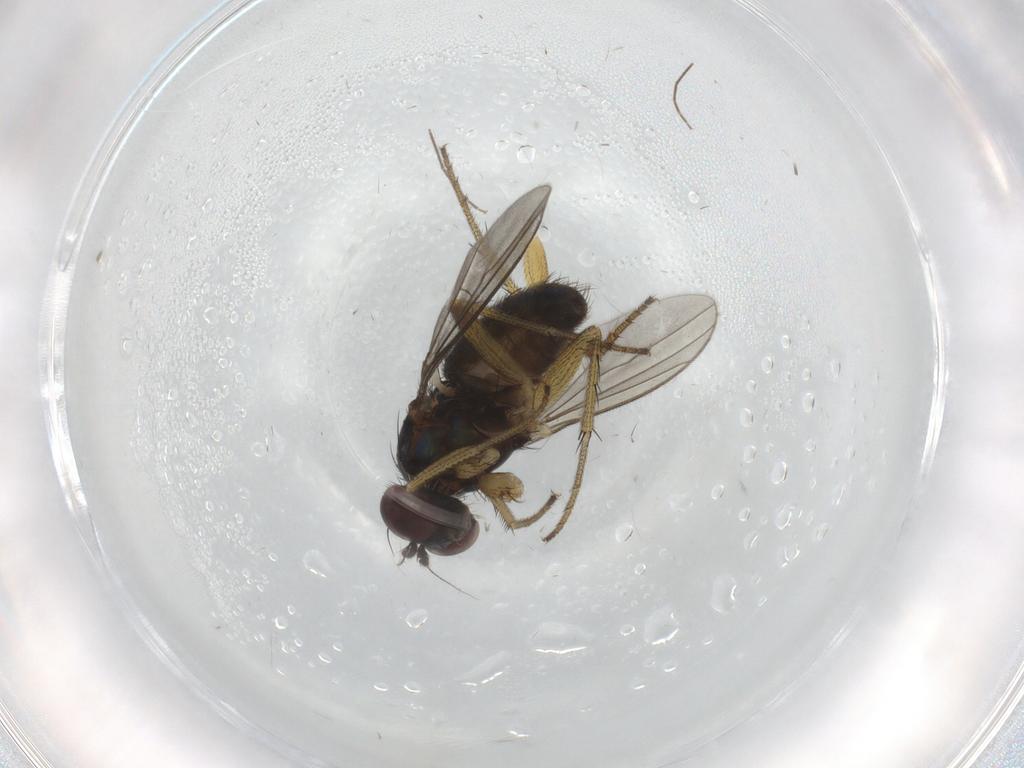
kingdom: Animalia
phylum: Arthropoda
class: Insecta
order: Diptera
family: Dolichopodidae
